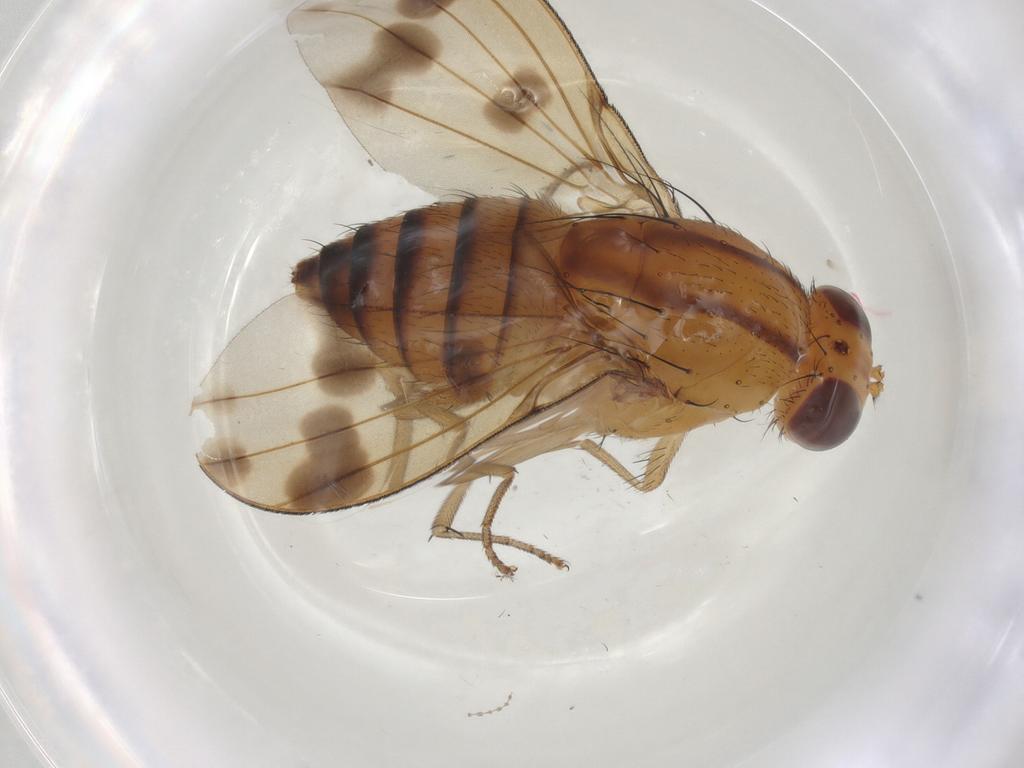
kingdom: Animalia
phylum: Arthropoda
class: Insecta
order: Diptera
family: Lauxaniidae
